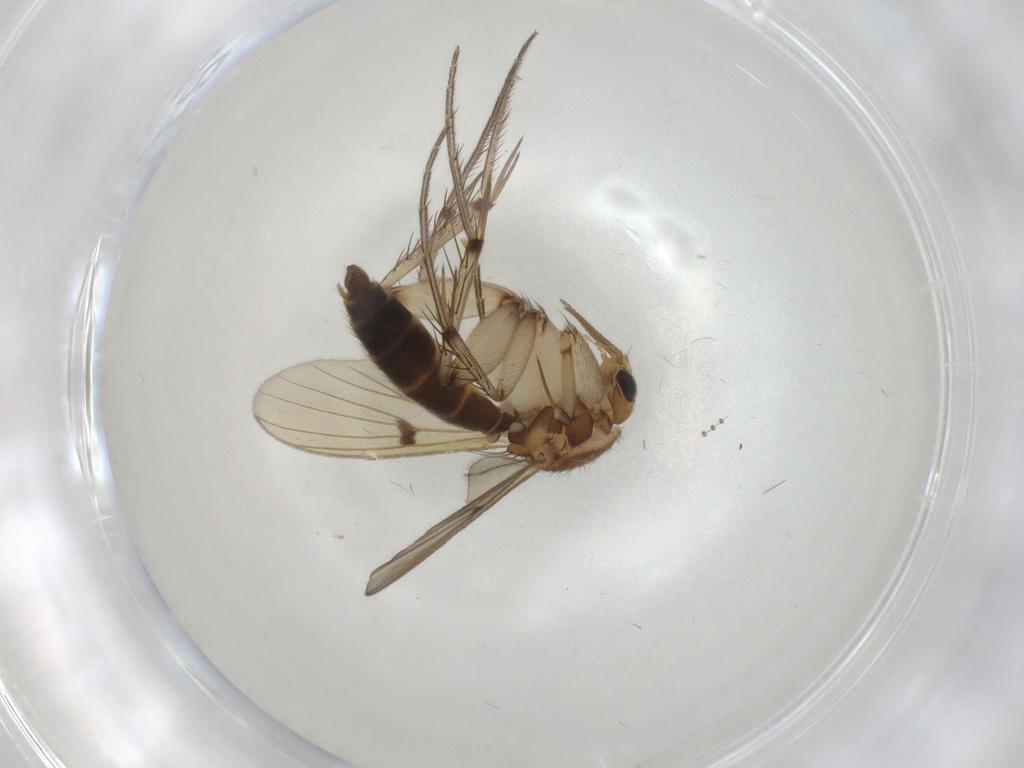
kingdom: Animalia
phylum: Arthropoda
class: Insecta
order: Diptera
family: Mycetophilidae
